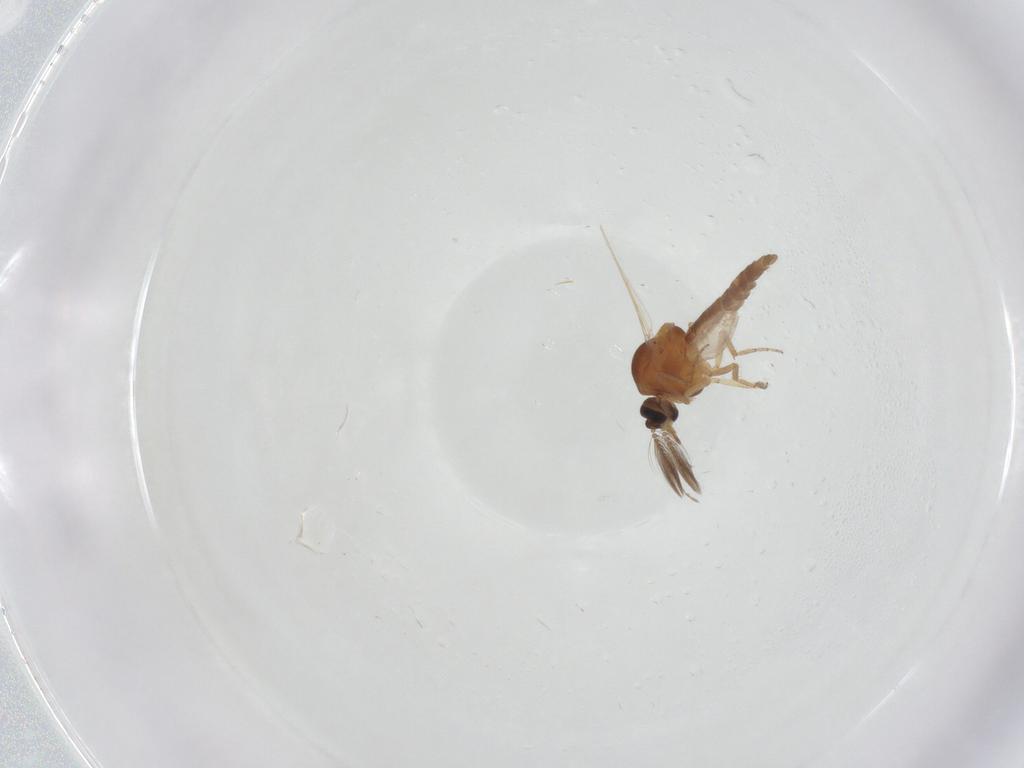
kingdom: Animalia
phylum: Arthropoda
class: Insecta
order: Diptera
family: Ceratopogonidae
